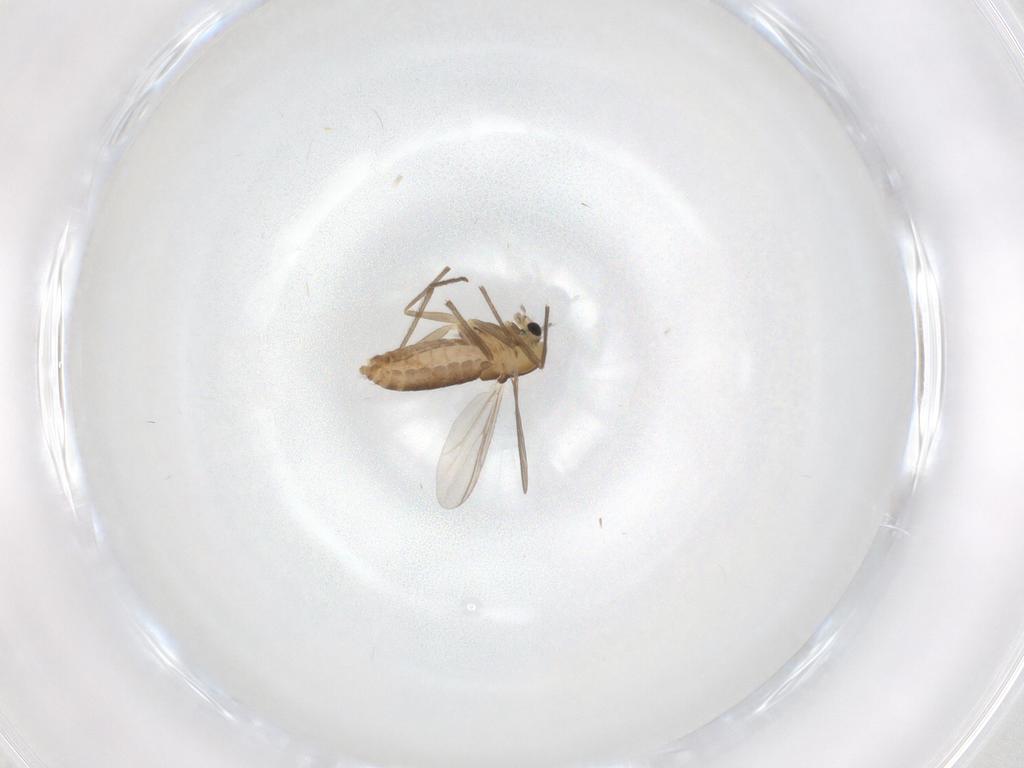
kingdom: Animalia
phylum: Arthropoda
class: Insecta
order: Diptera
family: Chironomidae
